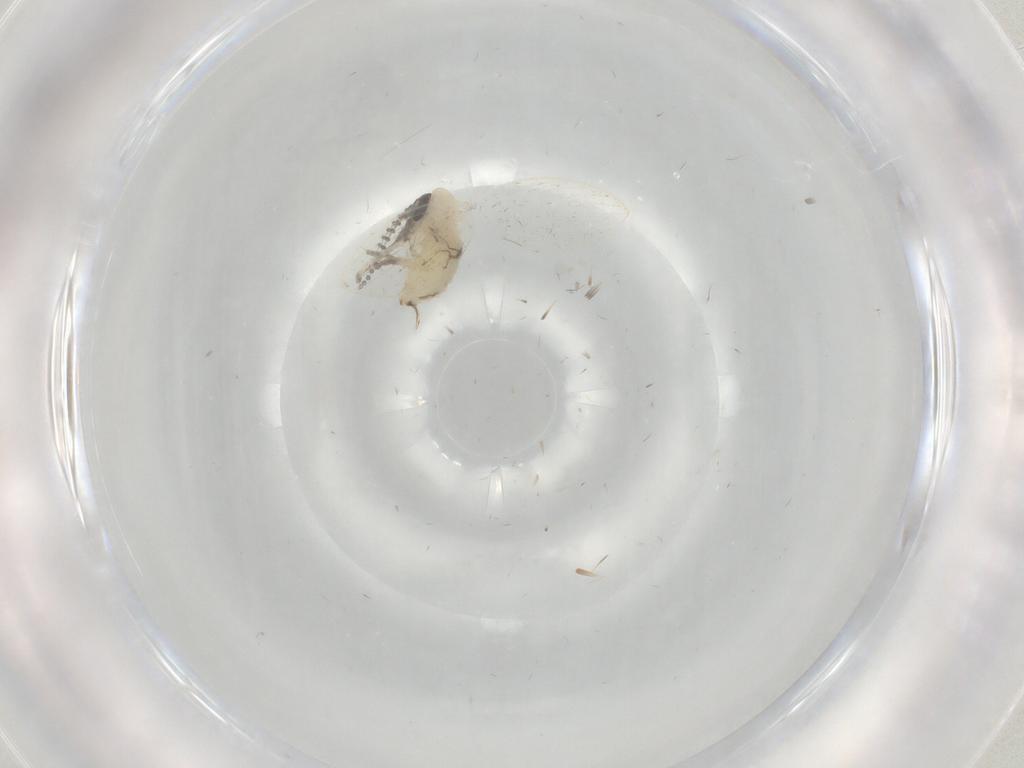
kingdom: Animalia
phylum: Arthropoda
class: Insecta
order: Diptera
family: Psychodidae
